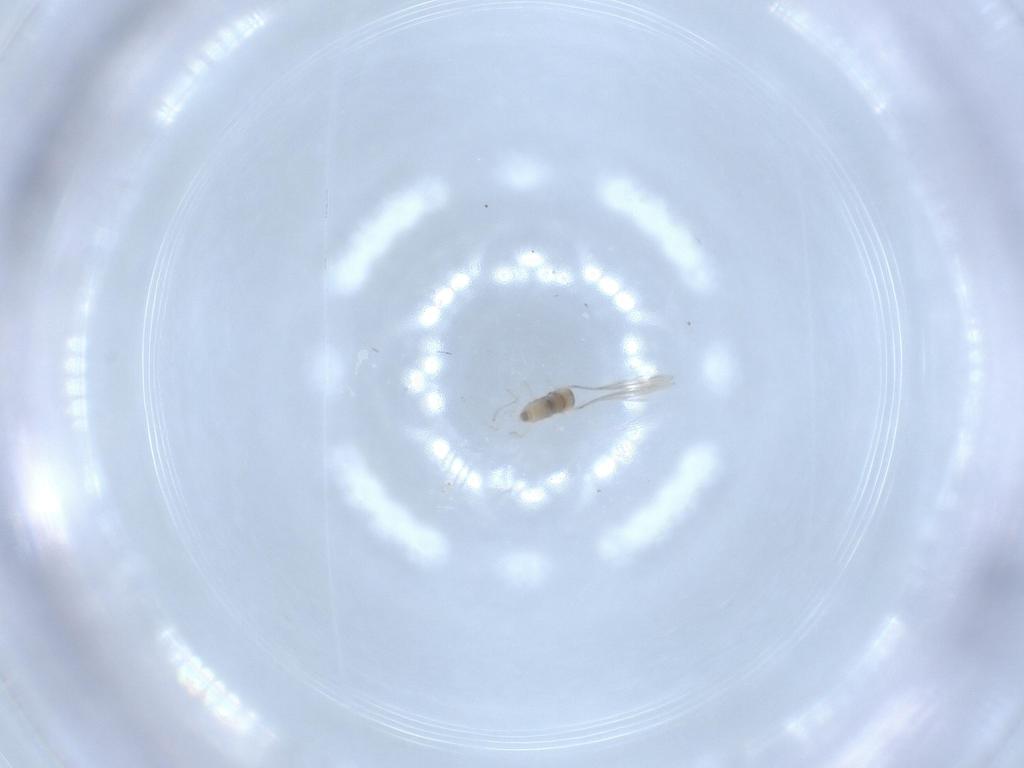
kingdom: Animalia
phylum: Arthropoda
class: Insecta
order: Diptera
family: Cecidomyiidae
